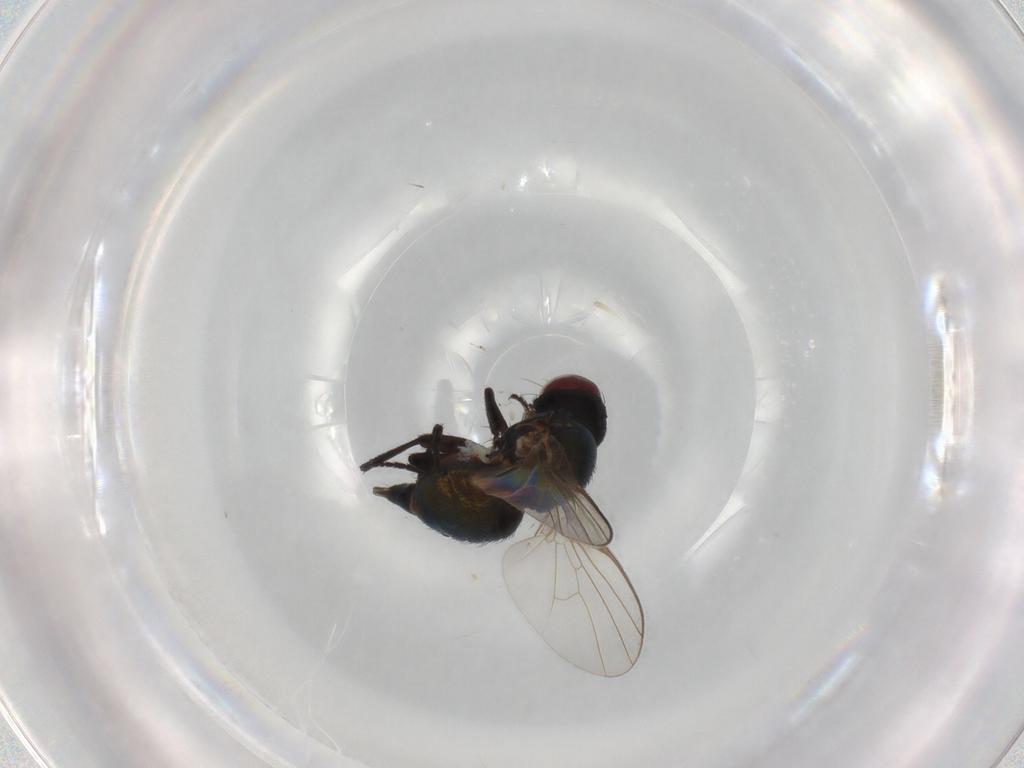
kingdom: Animalia
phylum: Arthropoda
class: Insecta
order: Diptera
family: Agromyzidae
